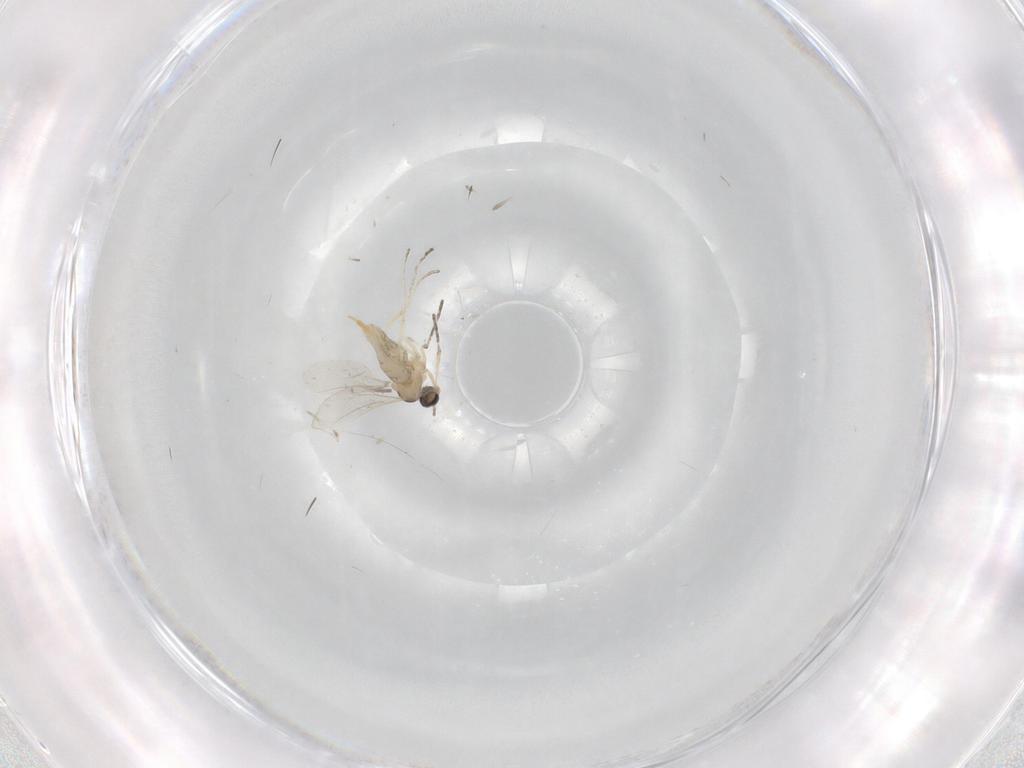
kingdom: Animalia
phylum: Arthropoda
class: Insecta
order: Diptera
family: Cecidomyiidae
